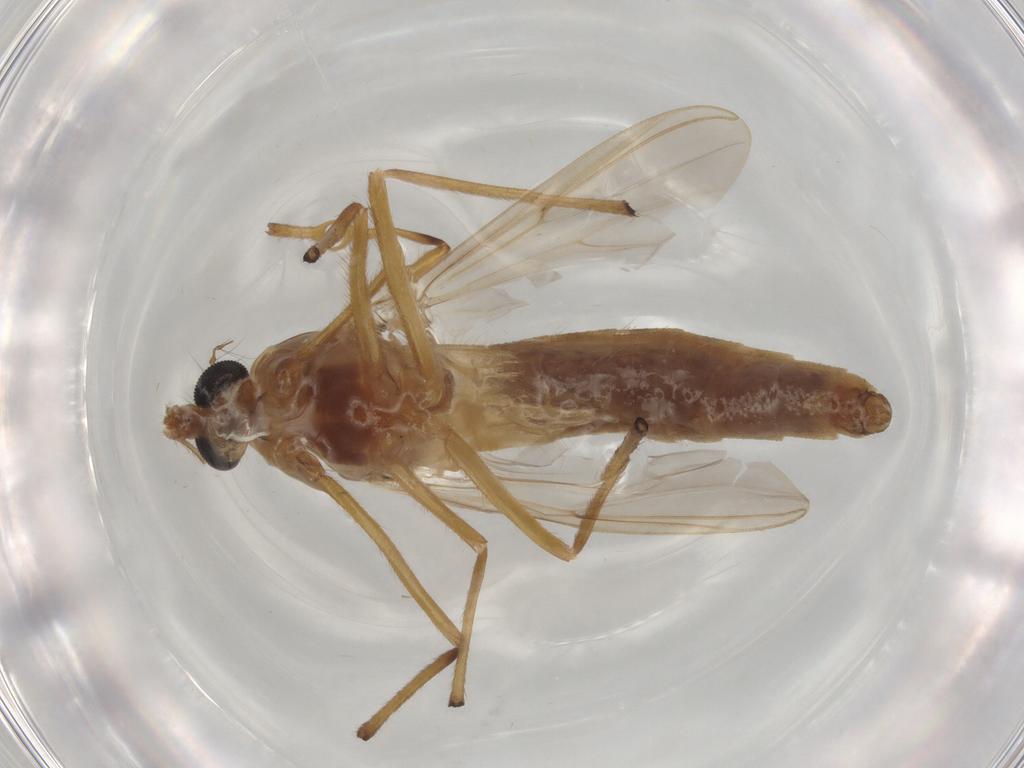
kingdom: Animalia
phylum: Arthropoda
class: Insecta
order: Diptera
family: Chironomidae
